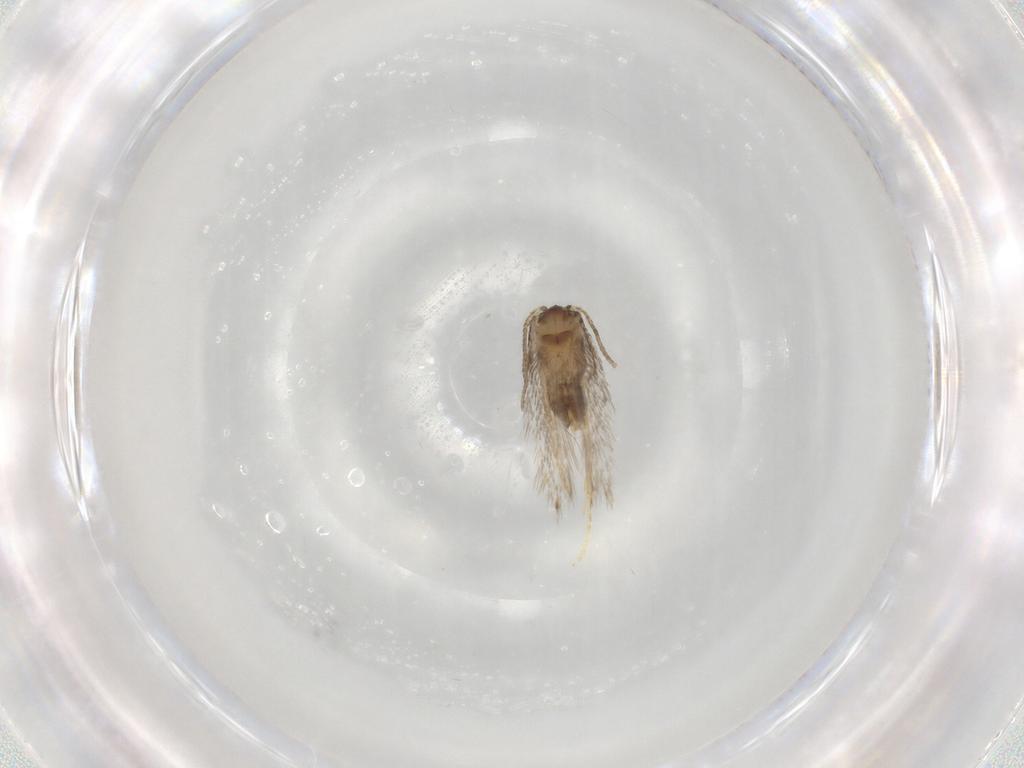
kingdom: Animalia
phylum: Arthropoda
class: Insecta
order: Lepidoptera
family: Nepticulidae
